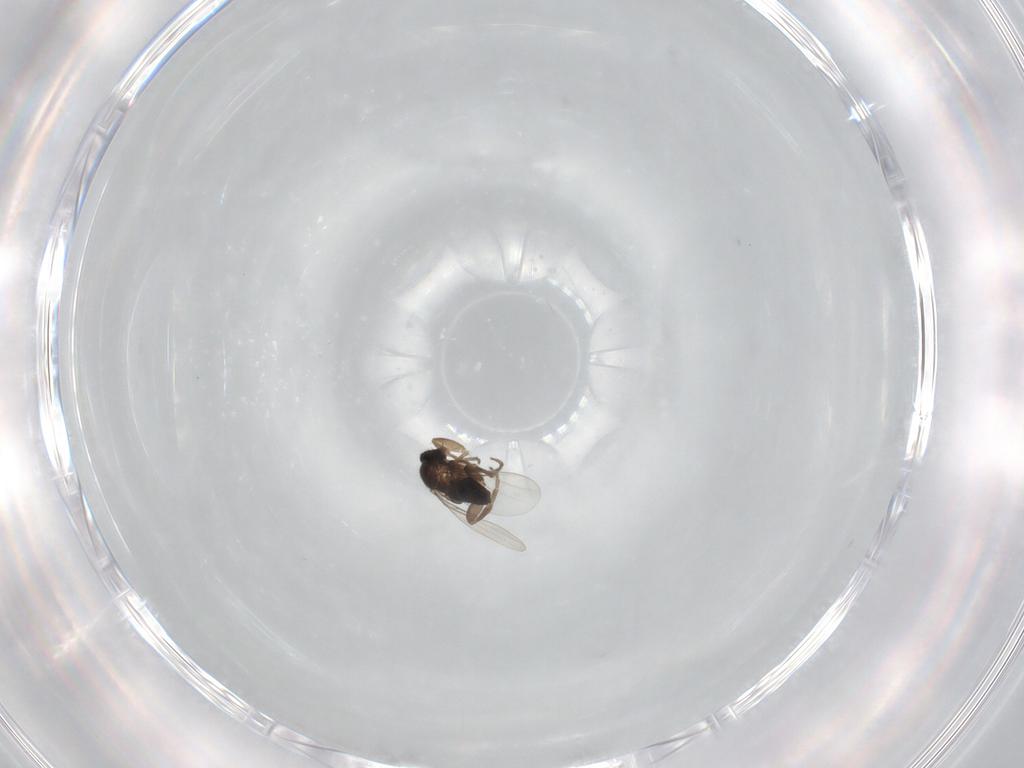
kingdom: Animalia
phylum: Arthropoda
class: Insecta
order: Diptera
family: Phoridae
